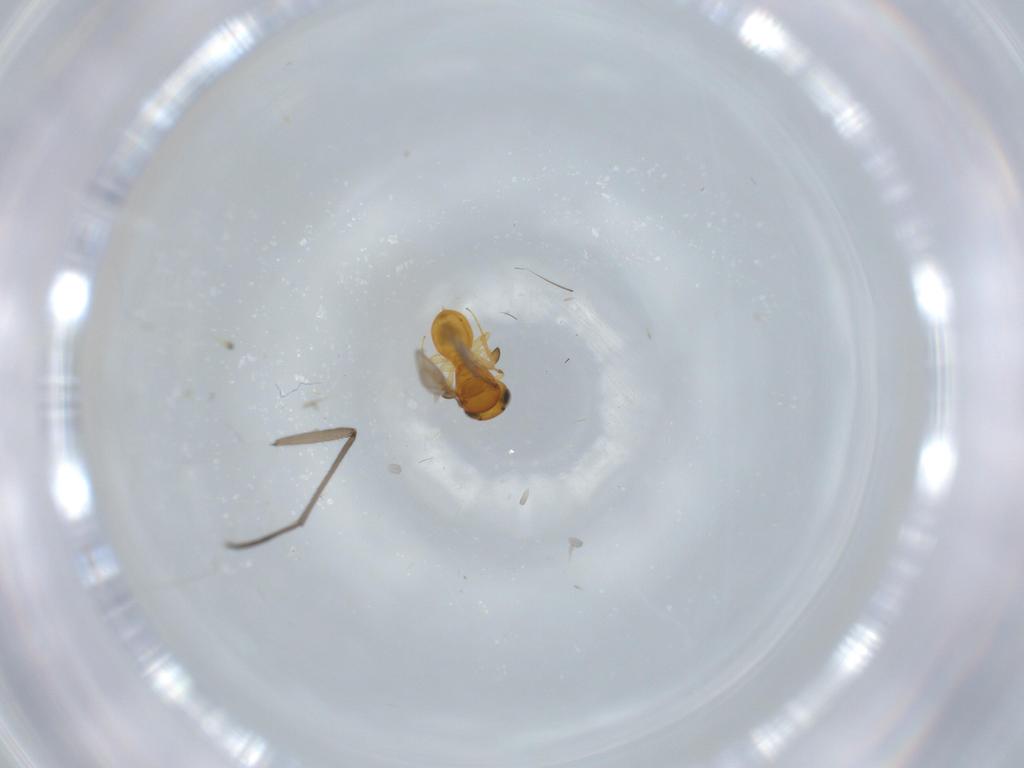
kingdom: Animalia
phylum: Arthropoda
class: Insecta
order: Hymenoptera
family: Scelionidae
